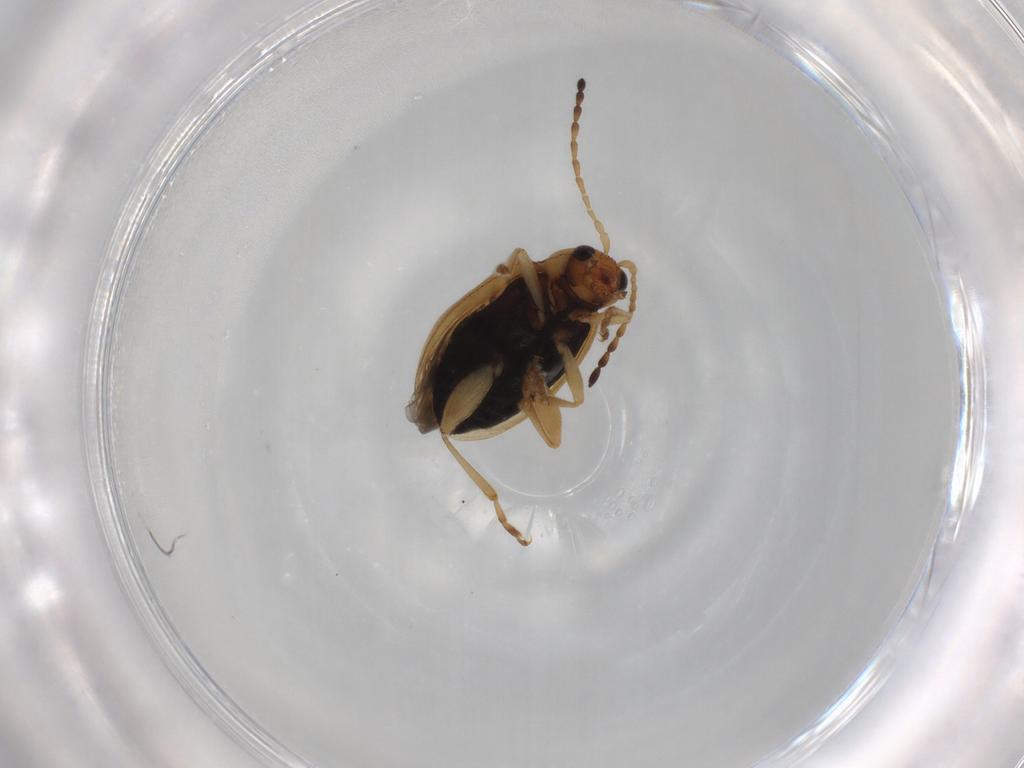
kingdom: Animalia
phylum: Arthropoda
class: Insecta
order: Coleoptera
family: Chrysomelidae
